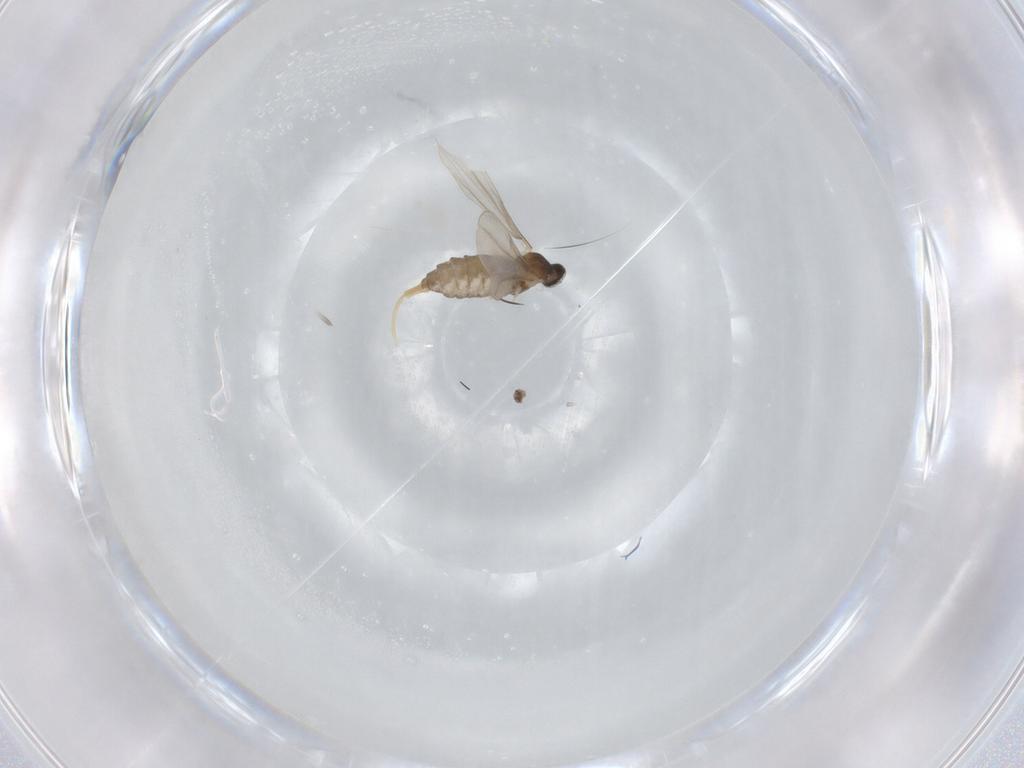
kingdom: Animalia
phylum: Arthropoda
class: Insecta
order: Diptera
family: Cecidomyiidae
